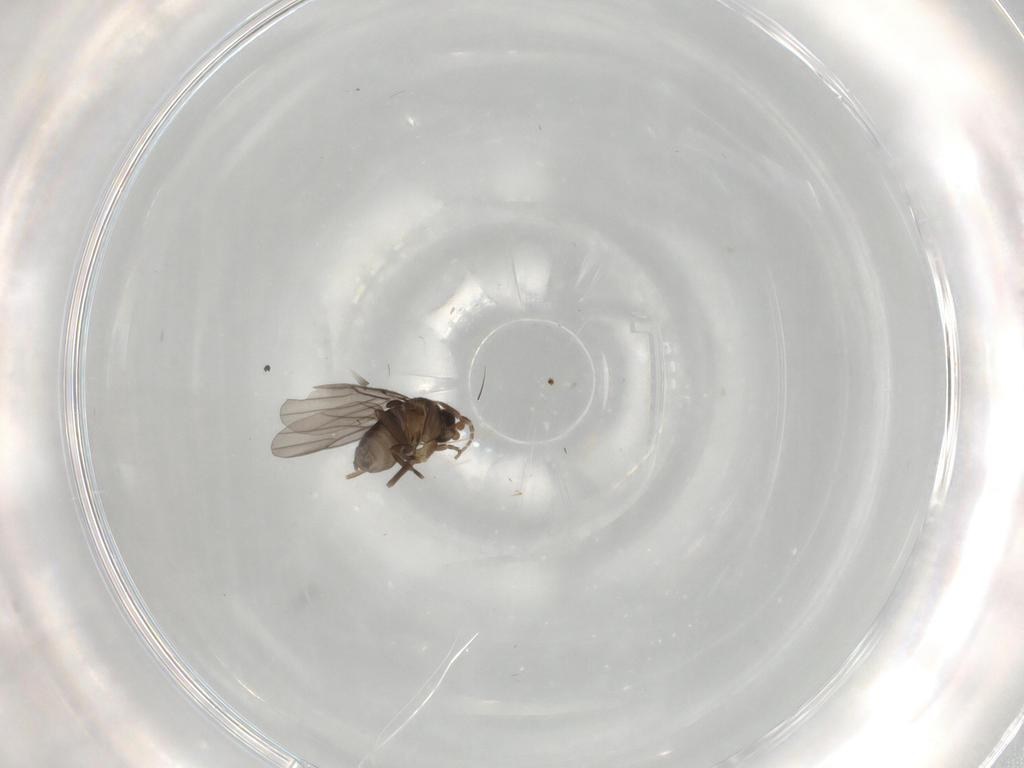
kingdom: Animalia
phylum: Arthropoda
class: Insecta
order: Diptera
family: Phoridae
